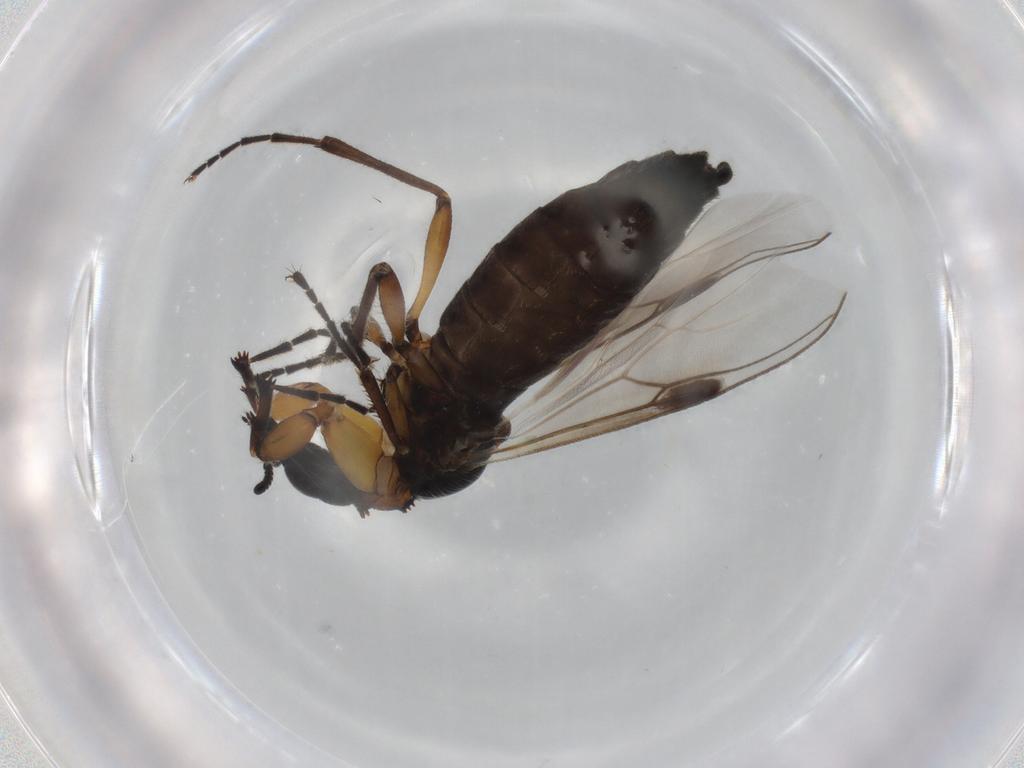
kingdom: Animalia
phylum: Arthropoda
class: Insecta
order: Diptera
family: Bibionidae
